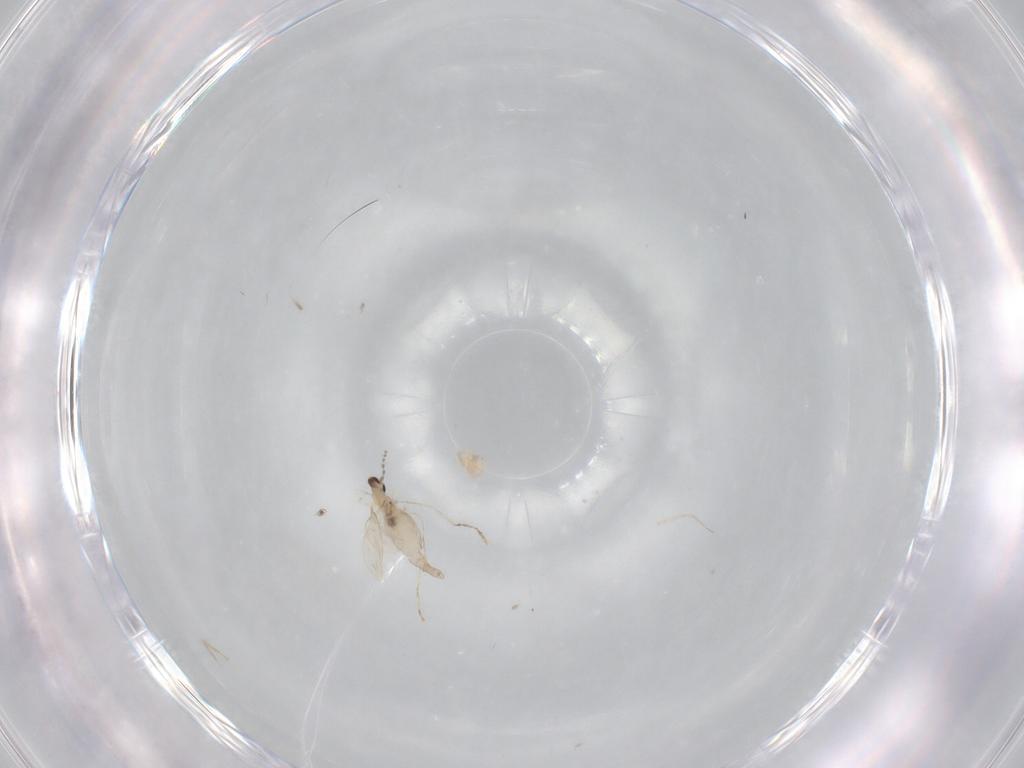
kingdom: Animalia
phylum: Arthropoda
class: Insecta
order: Diptera
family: Cecidomyiidae
